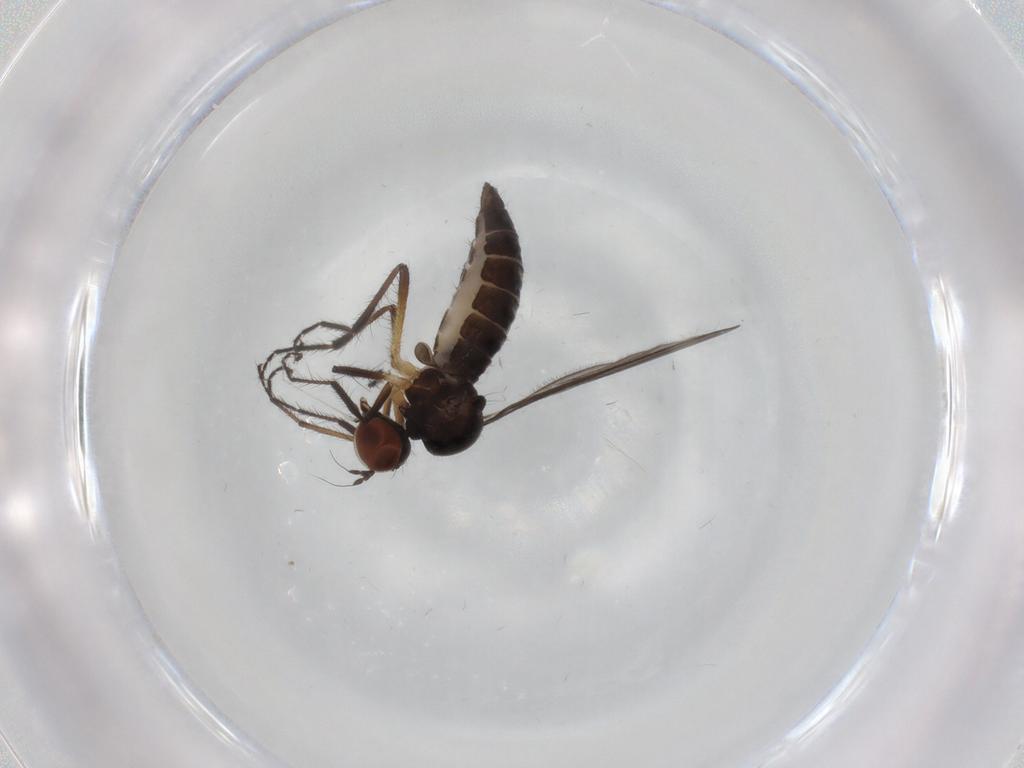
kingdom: Animalia
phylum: Arthropoda
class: Insecta
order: Diptera
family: Hybotidae
